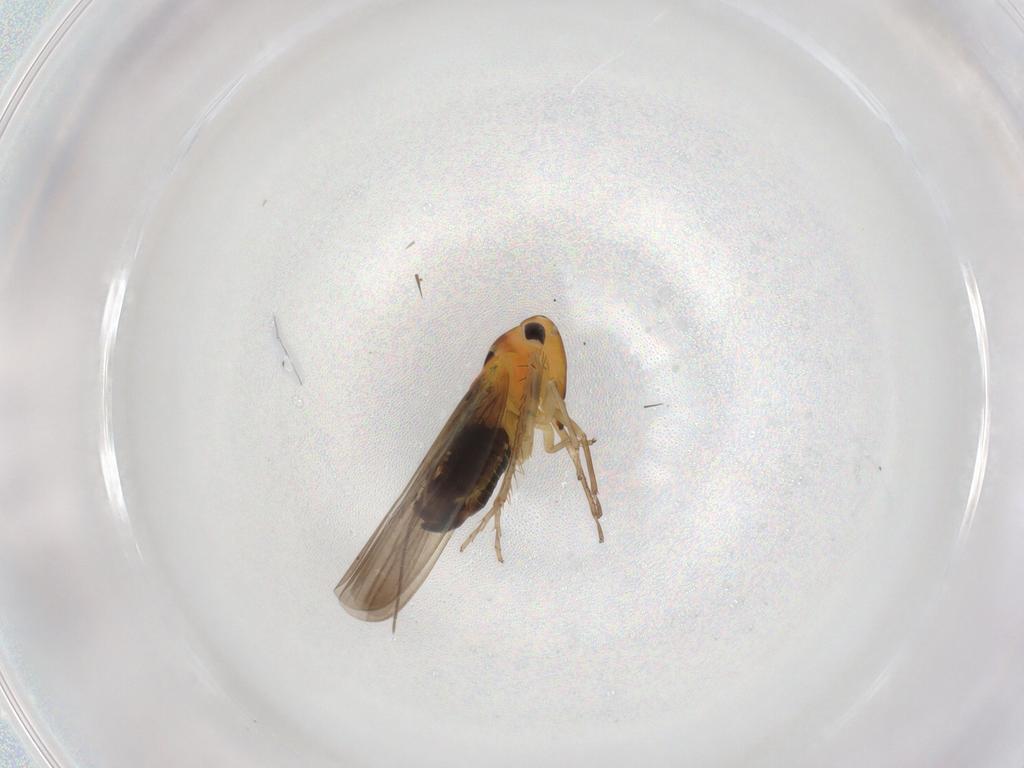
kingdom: Animalia
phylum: Arthropoda
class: Insecta
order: Hemiptera
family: Cicadellidae
